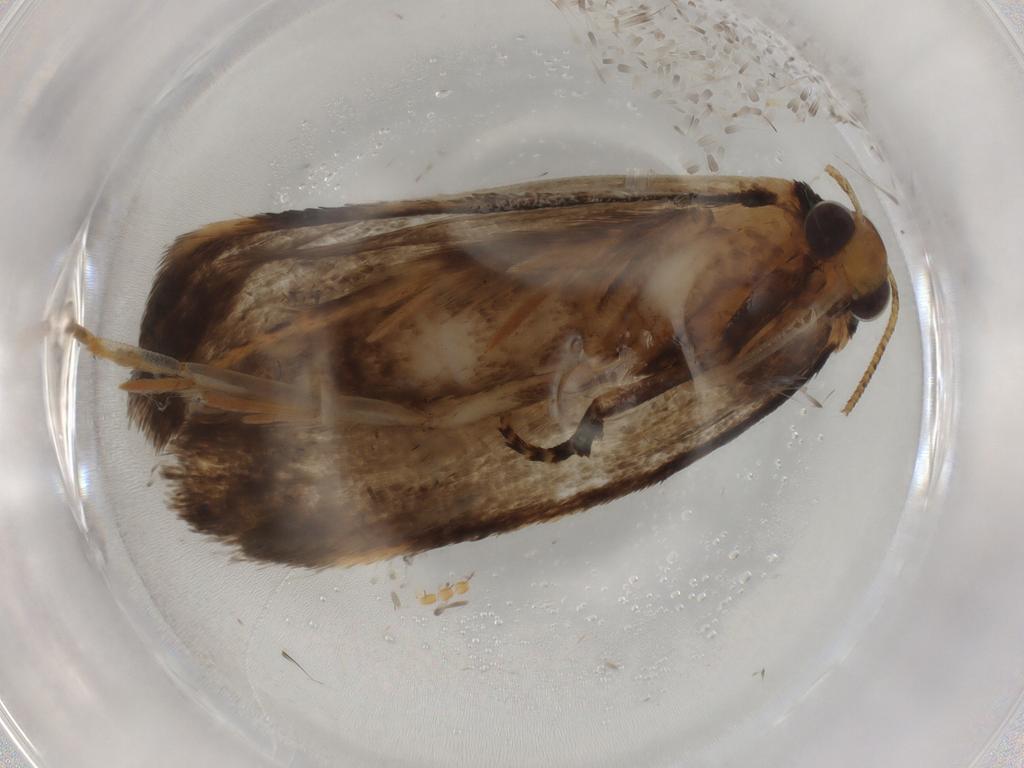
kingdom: Animalia
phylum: Arthropoda
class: Insecta
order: Lepidoptera
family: Oecophoridae
